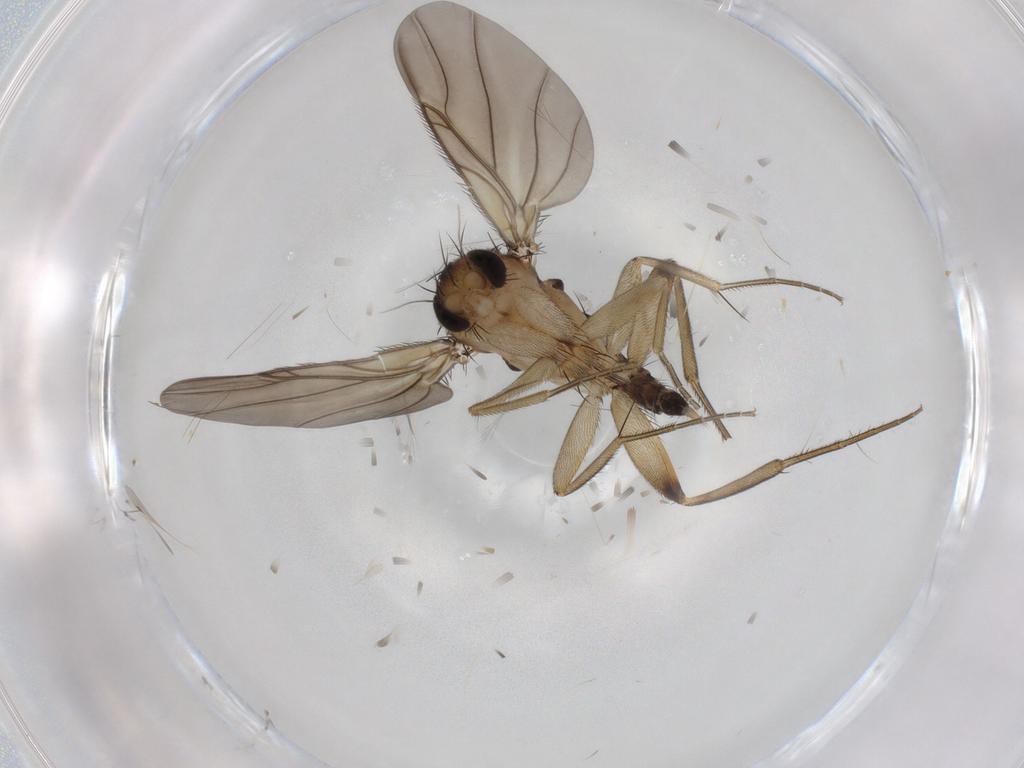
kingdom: Animalia
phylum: Arthropoda
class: Insecta
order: Diptera
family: Phoridae
